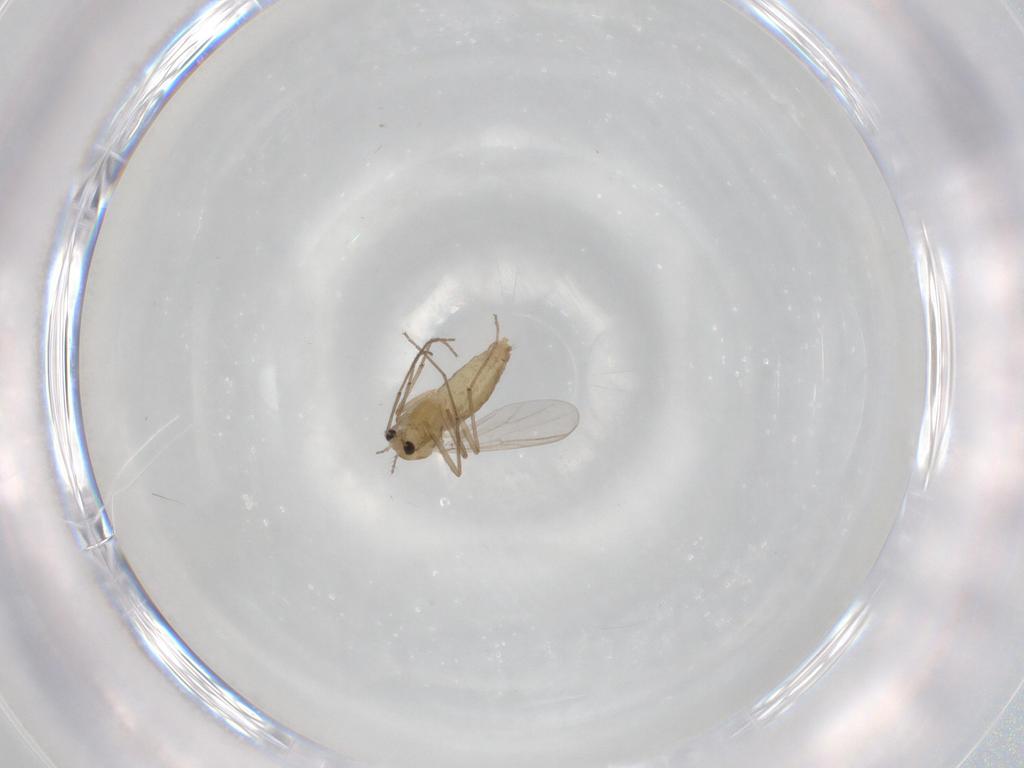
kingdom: Animalia
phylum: Arthropoda
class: Insecta
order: Diptera
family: Chironomidae
